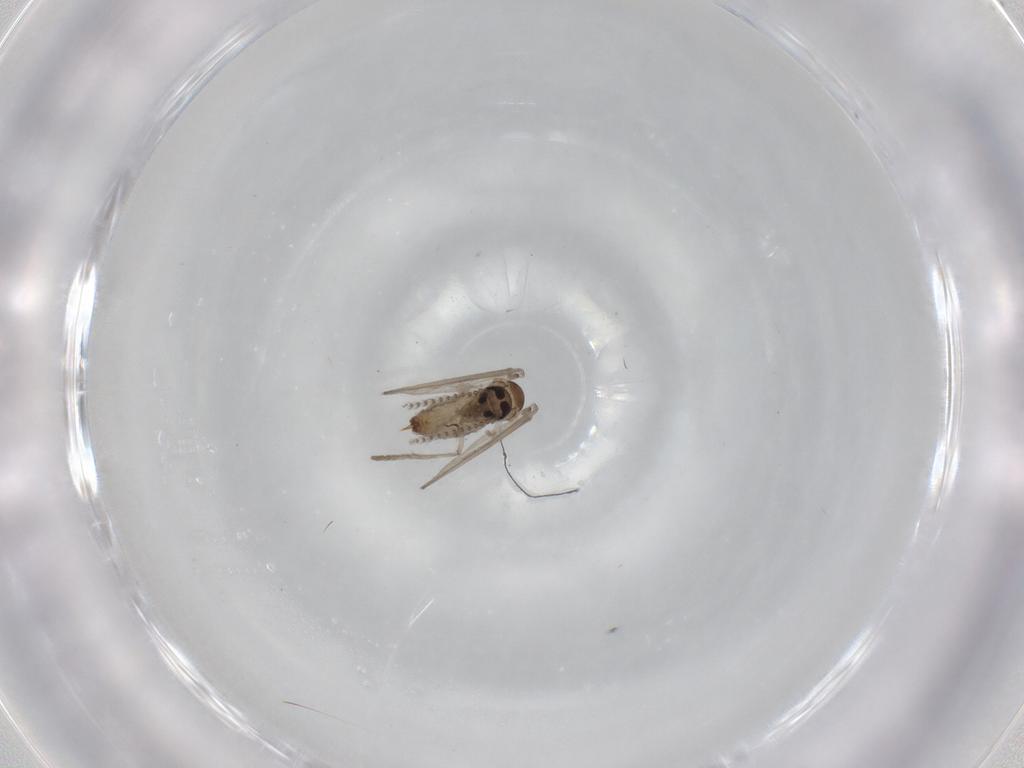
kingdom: Animalia
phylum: Arthropoda
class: Insecta
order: Diptera
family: Psychodidae
